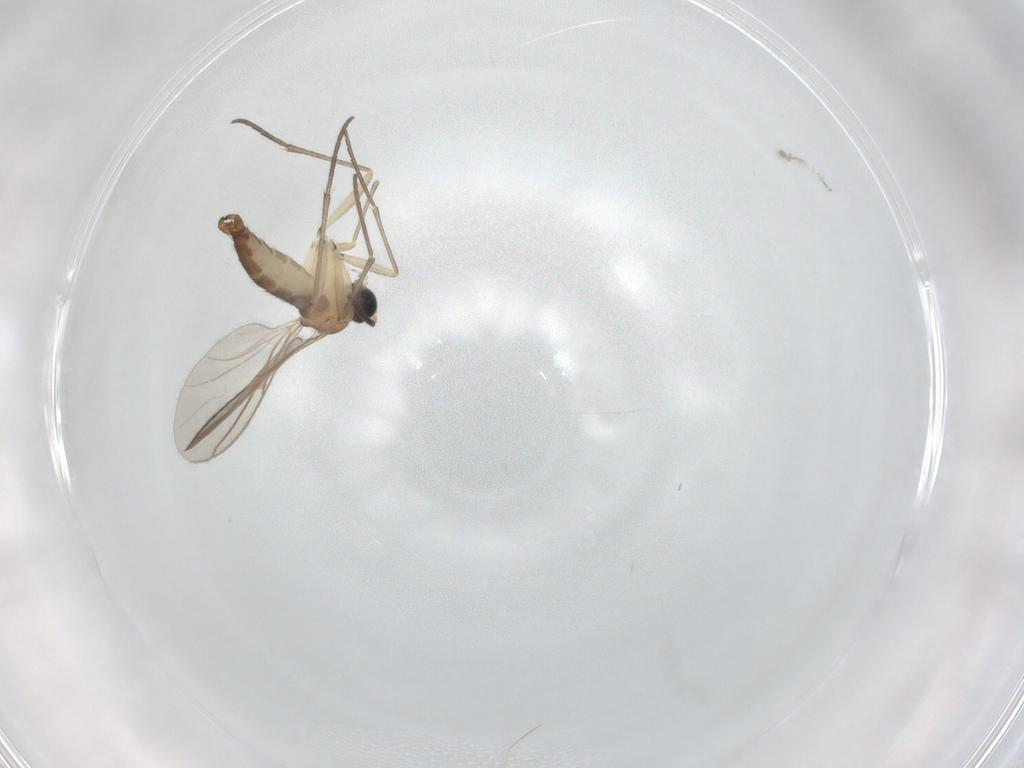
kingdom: Animalia
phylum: Arthropoda
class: Insecta
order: Diptera
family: Sciaridae
